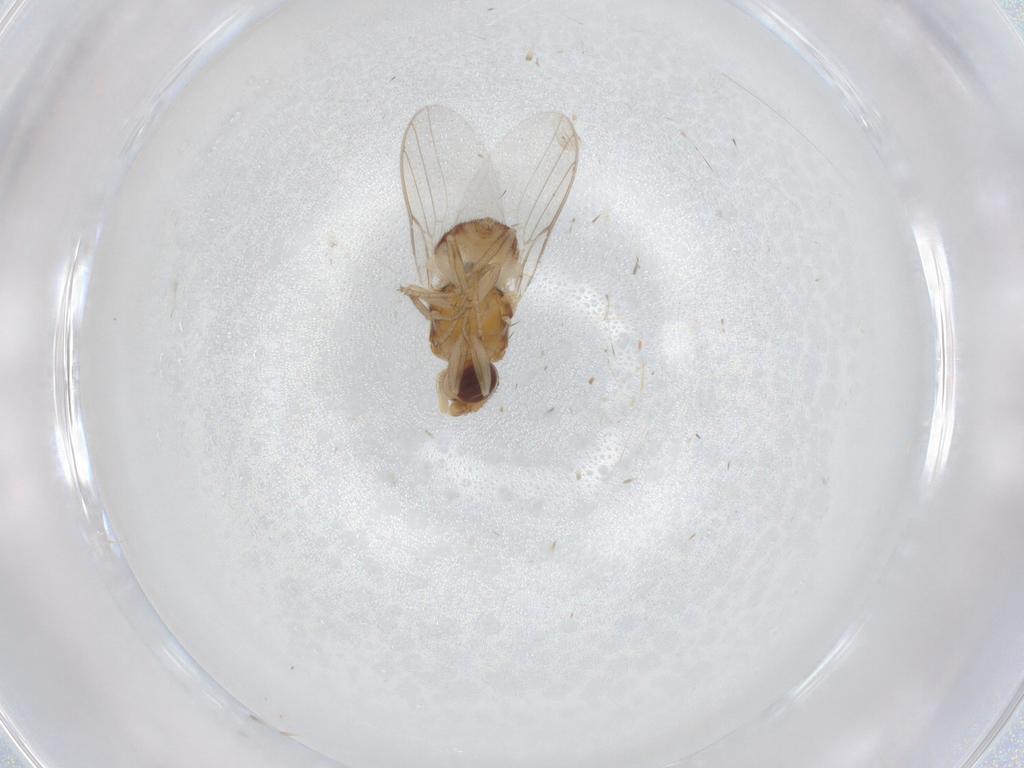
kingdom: Animalia
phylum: Arthropoda
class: Insecta
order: Diptera
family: Chloropidae
